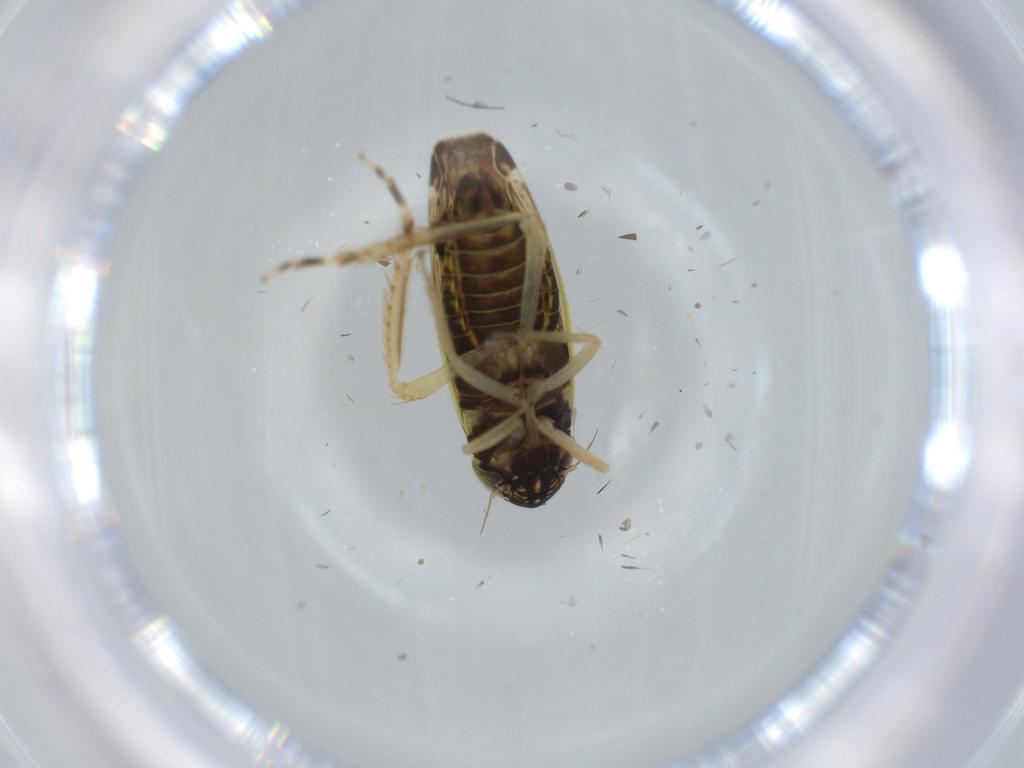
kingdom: Animalia
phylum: Arthropoda
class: Insecta
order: Hemiptera
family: Cicadellidae
